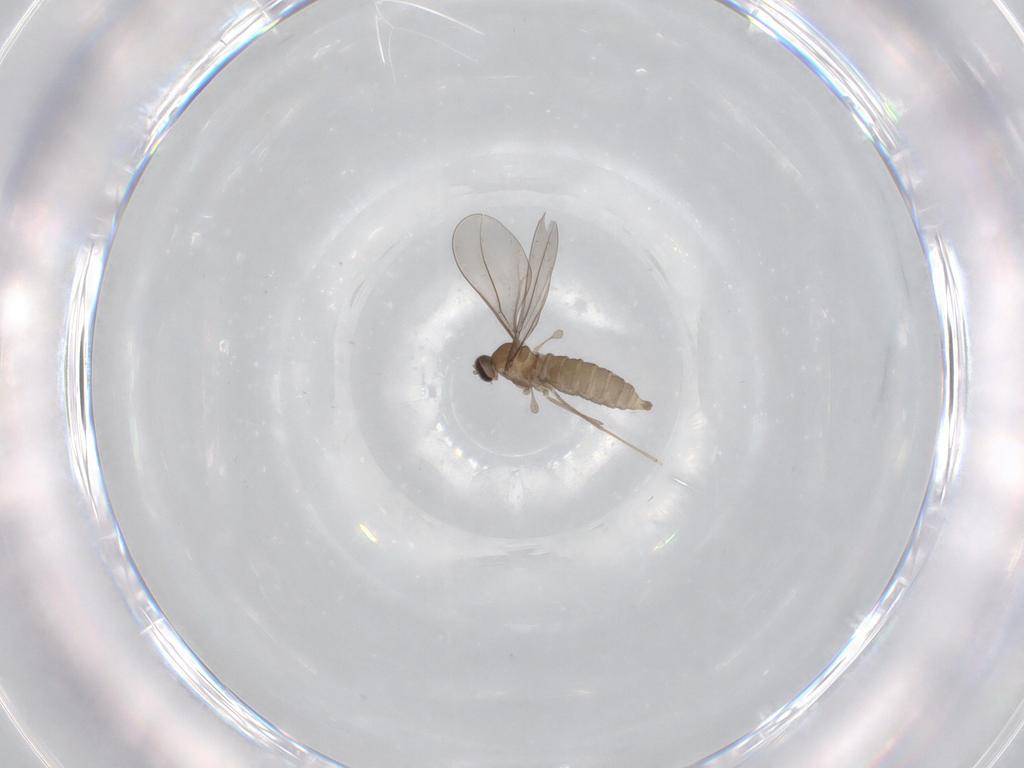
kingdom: Animalia
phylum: Arthropoda
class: Insecta
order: Diptera
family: Cecidomyiidae
